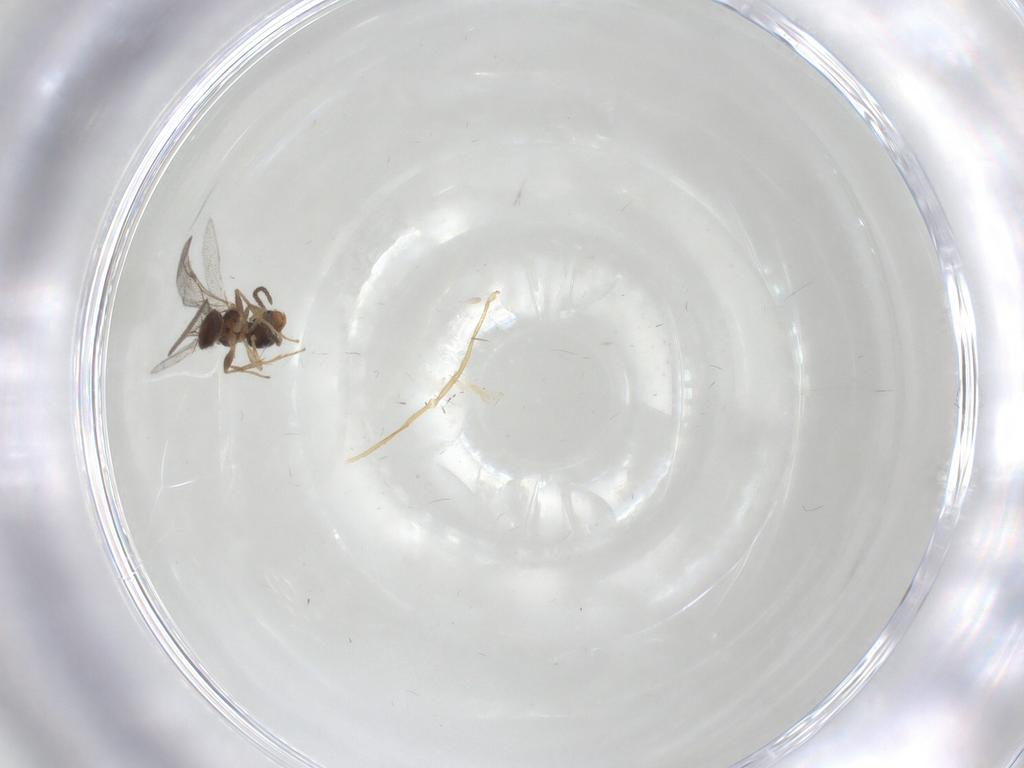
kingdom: Animalia
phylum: Arthropoda
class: Insecta
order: Hymenoptera
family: Bethylidae
